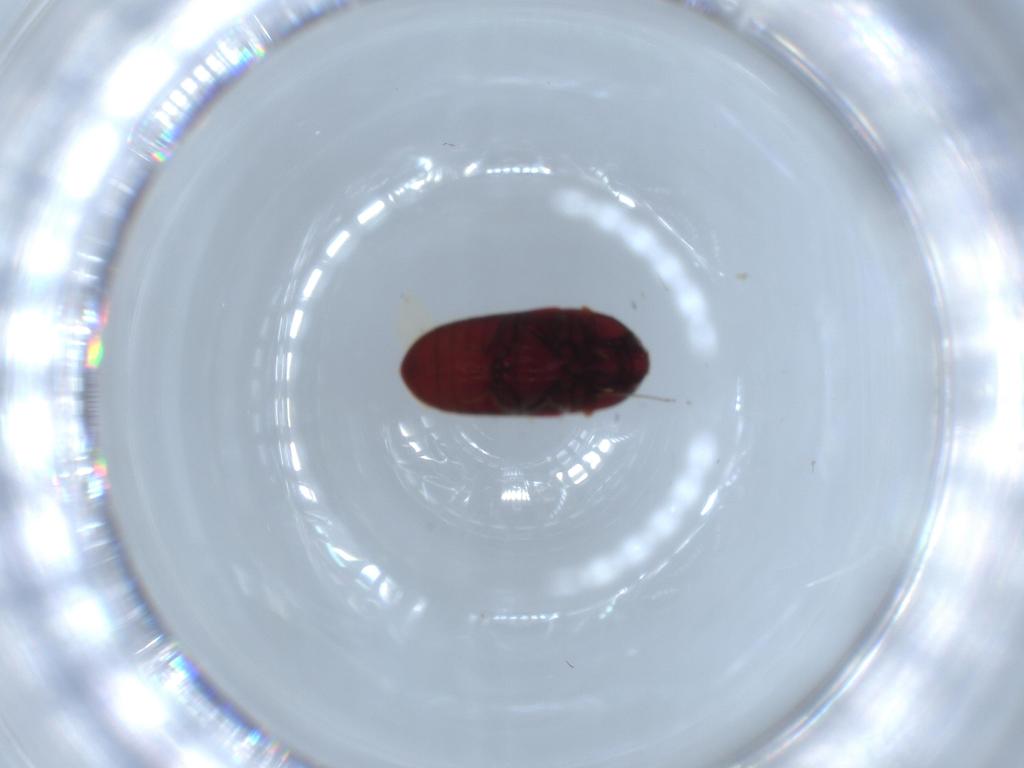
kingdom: Animalia
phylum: Arthropoda
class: Insecta
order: Coleoptera
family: Throscidae
